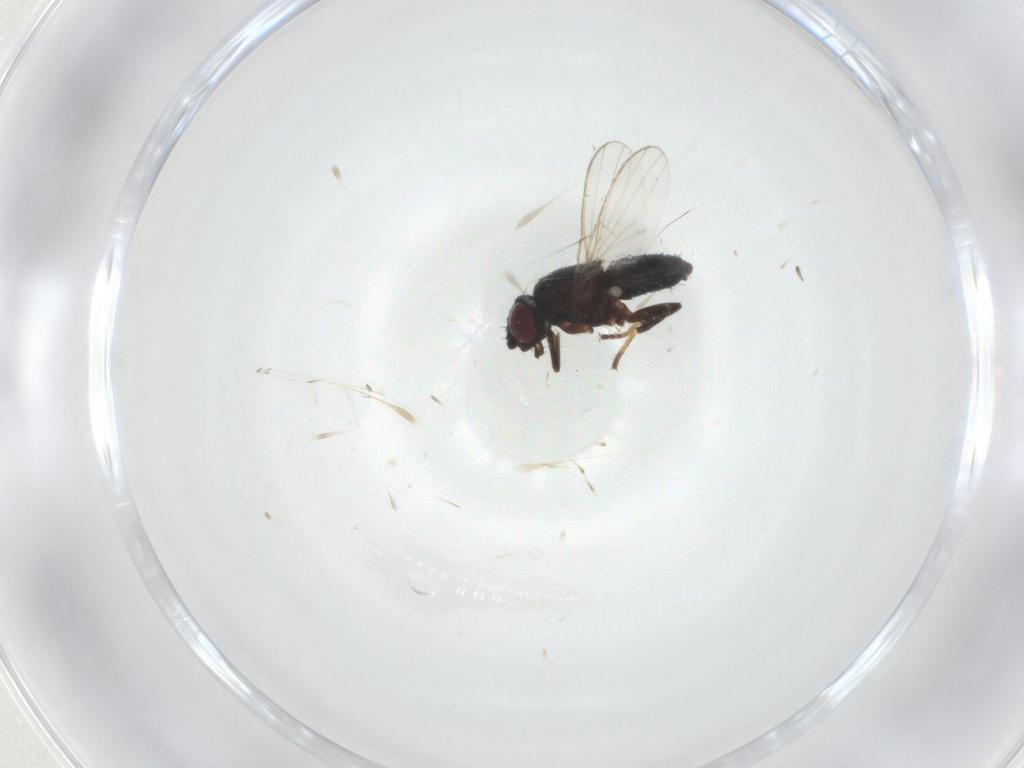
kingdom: Animalia
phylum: Arthropoda
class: Insecta
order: Diptera
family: Milichiidae
